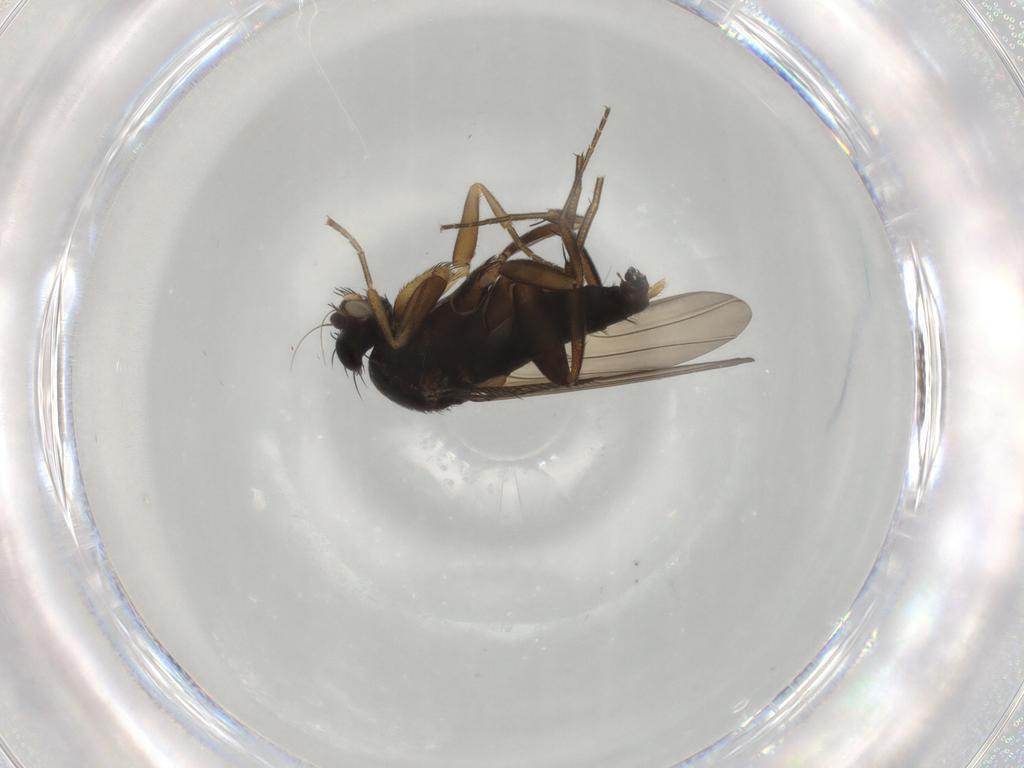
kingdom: Animalia
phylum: Arthropoda
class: Insecta
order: Diptera
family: Phoridae
